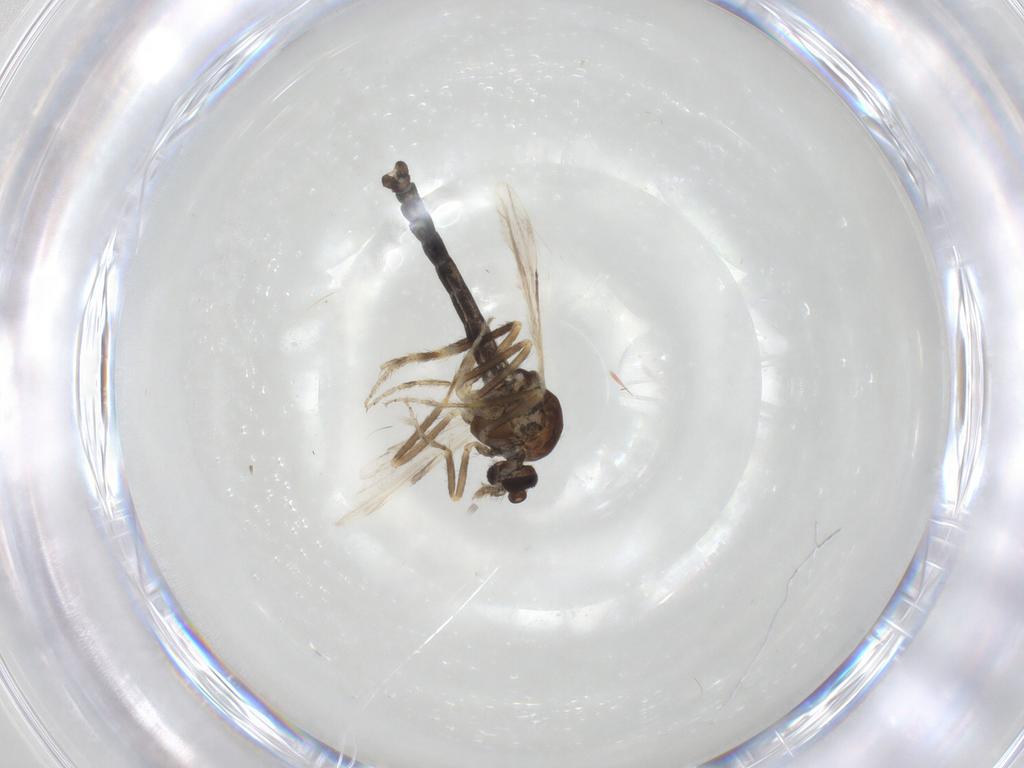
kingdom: Animalia
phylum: Arthropoda
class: Insecta
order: Diptera
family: Ceratopogonidae
